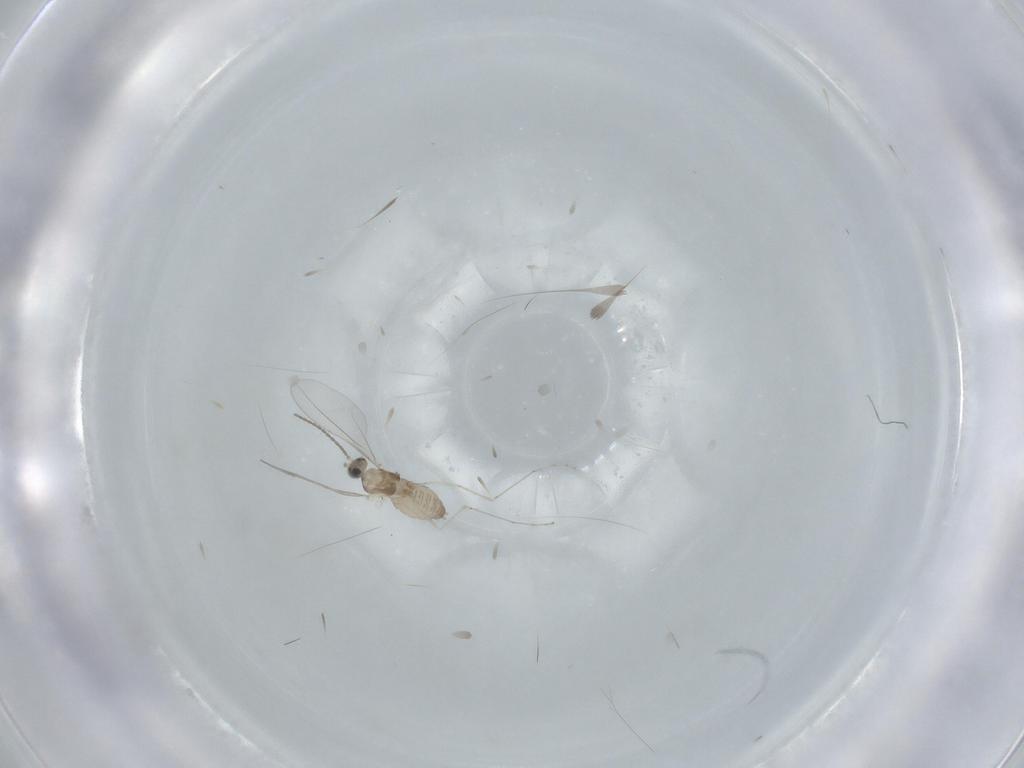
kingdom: Animalia
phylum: Arthropoda
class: Insecta
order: Diptera
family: Cecidomyiidae
